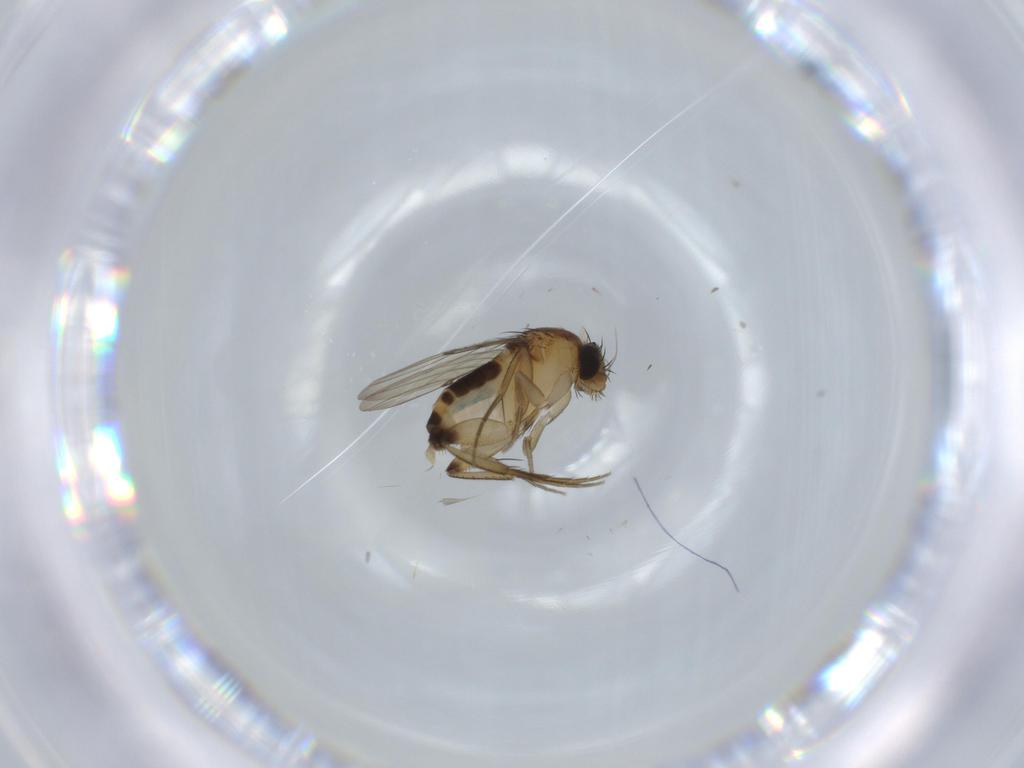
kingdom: Animalia
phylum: Arthropoda
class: Insecta
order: Diptera
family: Phoridae
